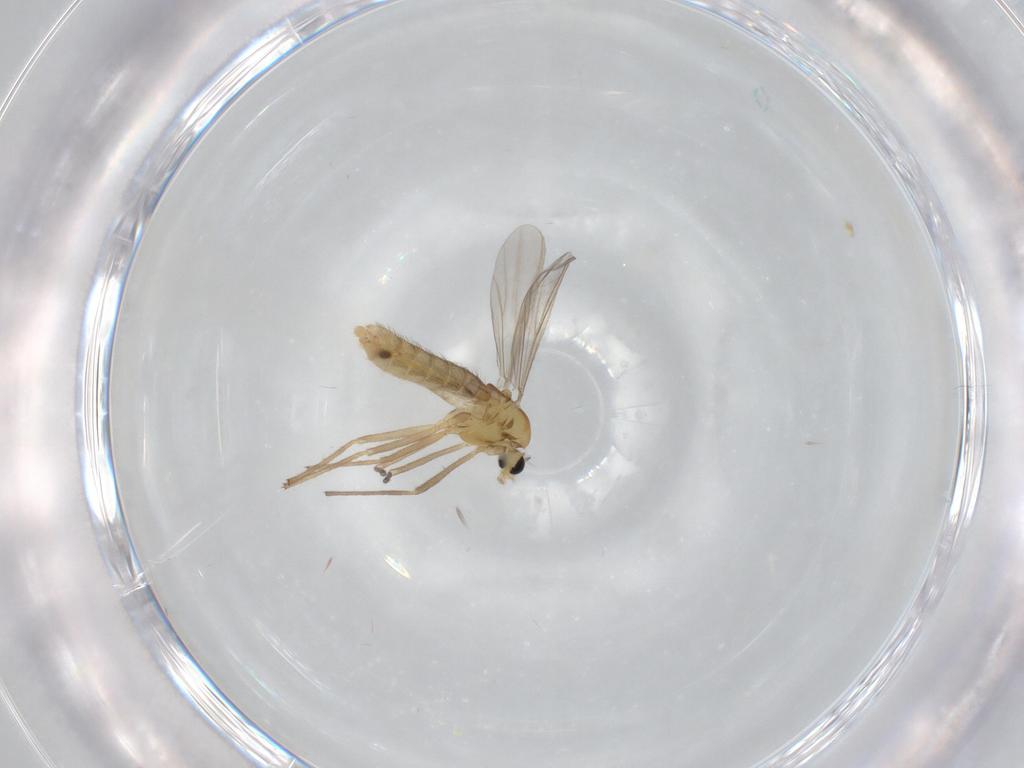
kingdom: Animalia
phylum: Arthropoda
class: Insecta
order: Diptera
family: Chironomidae
